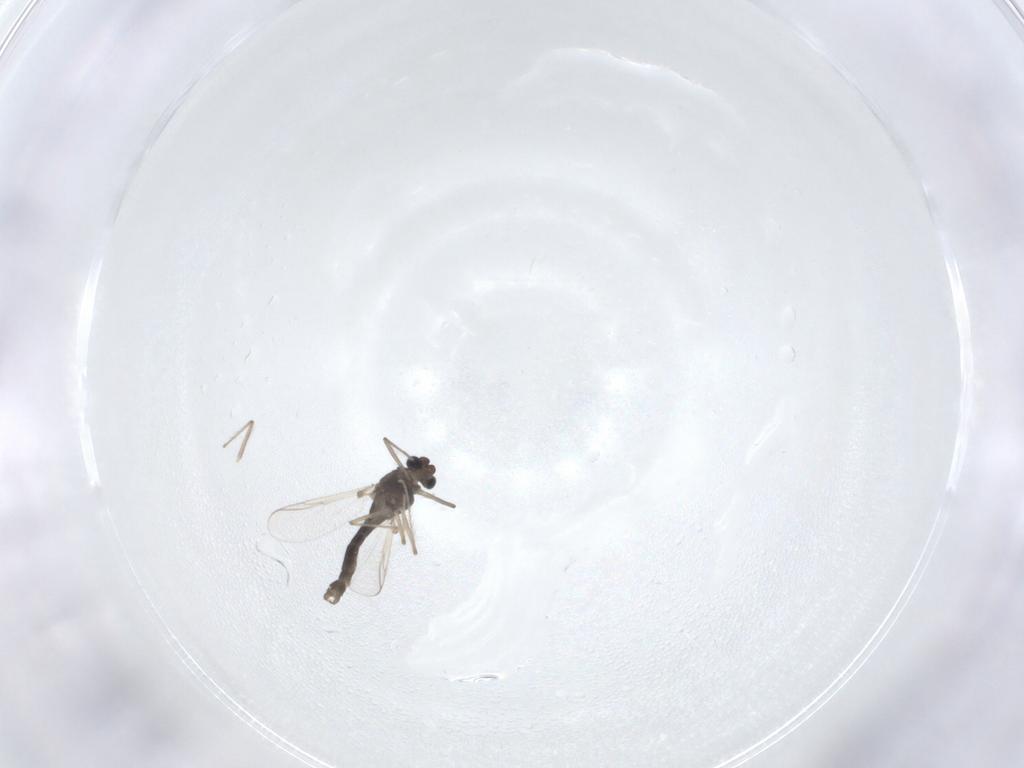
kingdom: Animalia
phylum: Arthropoda
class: Insecta
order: Diptera
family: Chironomidae
